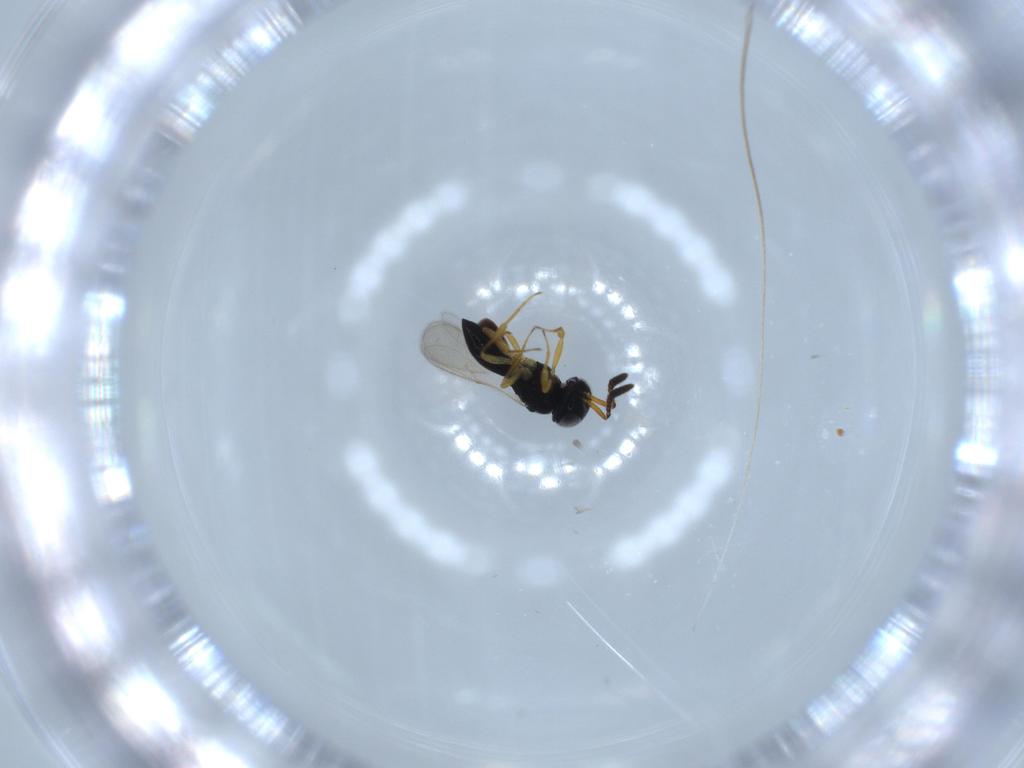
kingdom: Animalia
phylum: Arthropoda
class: Insecta
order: Hymenoptera
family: Scelionidae
